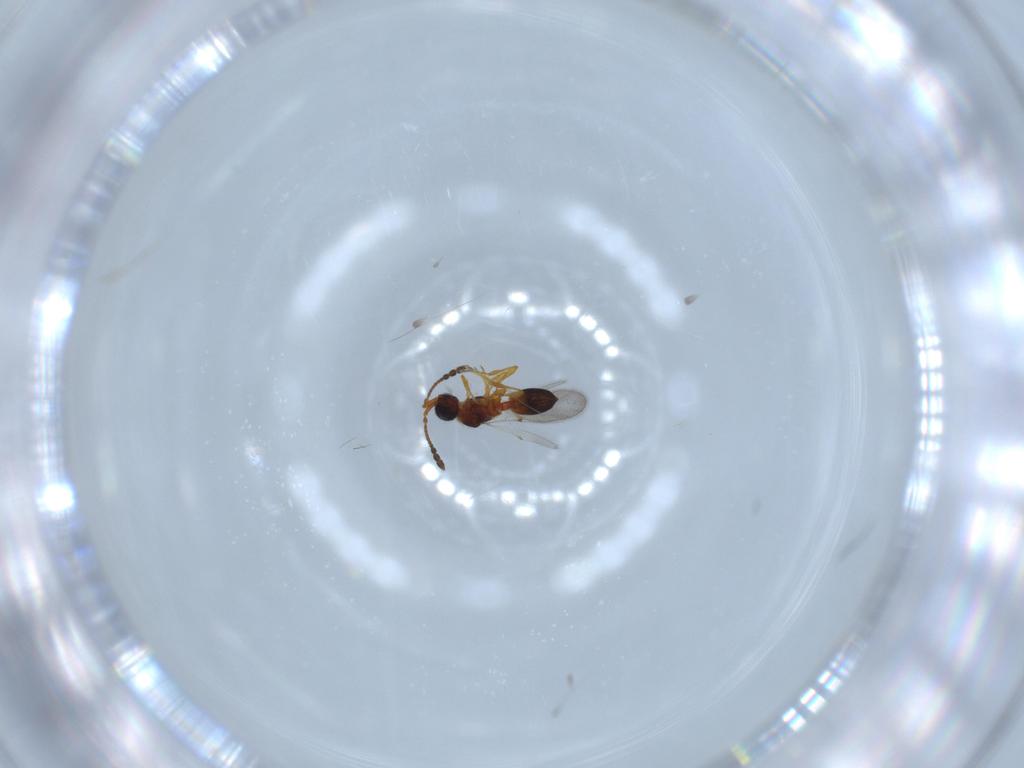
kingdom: Animalia
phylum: Arthropoda
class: Insecta
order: Hymenoptera
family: Diapriidae
